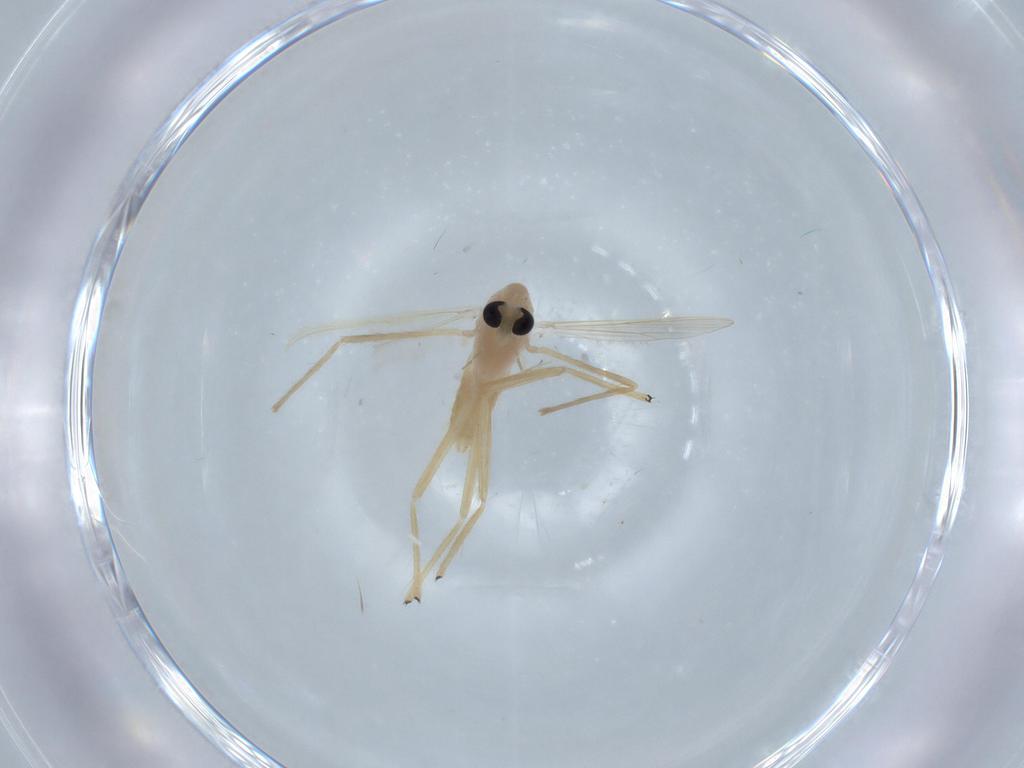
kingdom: Animalia
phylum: Arthropoda
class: Insecta
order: Diptera
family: Chironomidae
